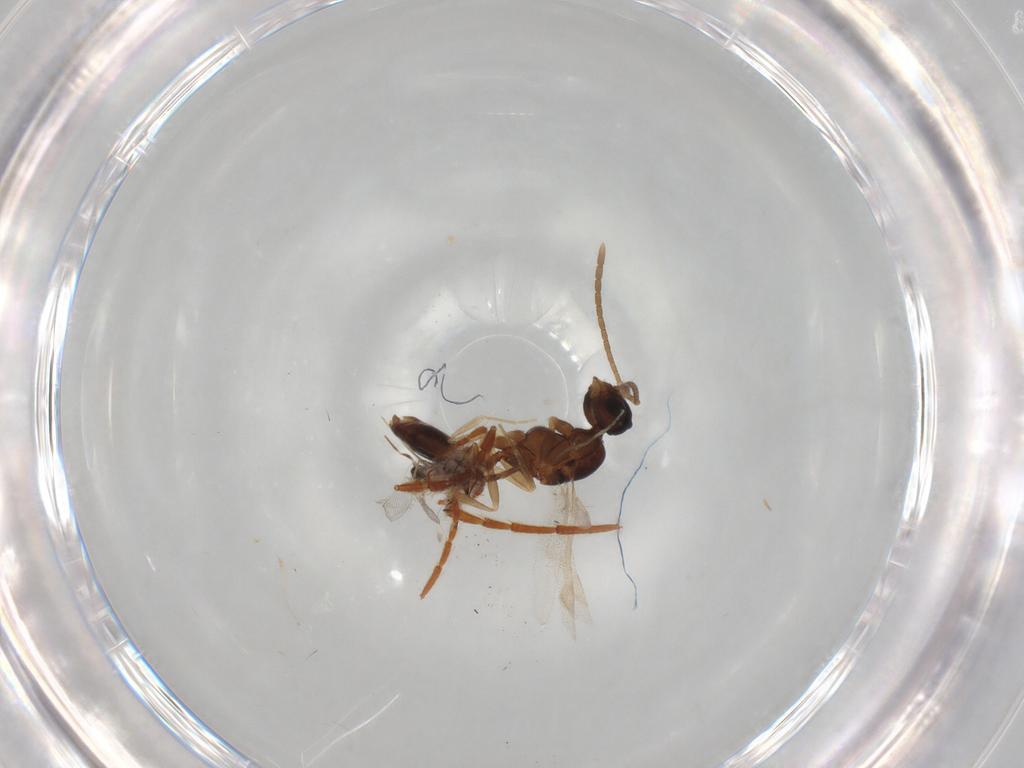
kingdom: Animalia
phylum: Arthropoda
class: Insecta
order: Hymenoptera
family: Formicidae
